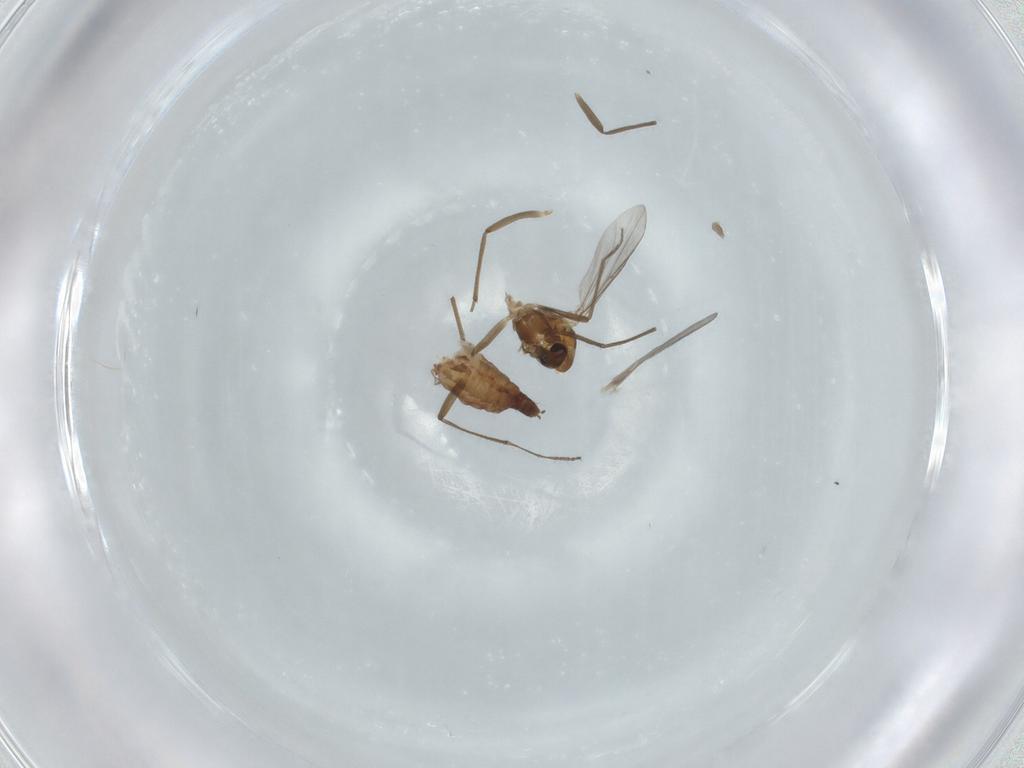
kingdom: Animalia
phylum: Arthropoda
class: Insecta
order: Diptera
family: Chironomidae
